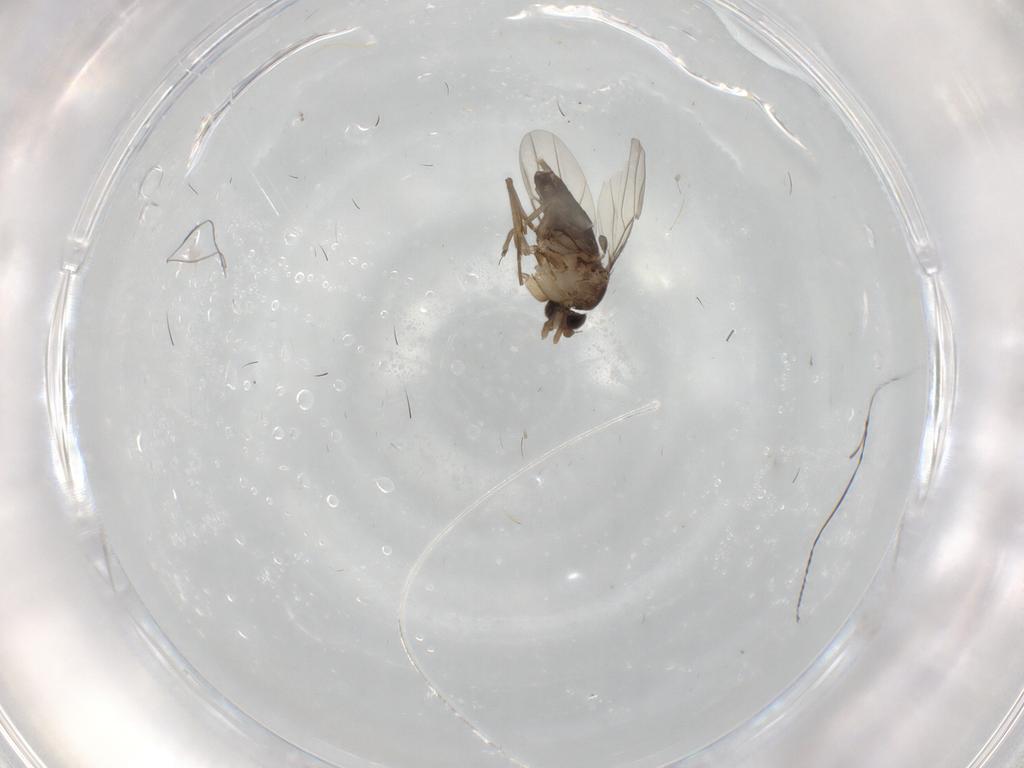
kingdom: Animalia
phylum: Arthropoda
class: Insecta
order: Diptera
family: Phoridae
